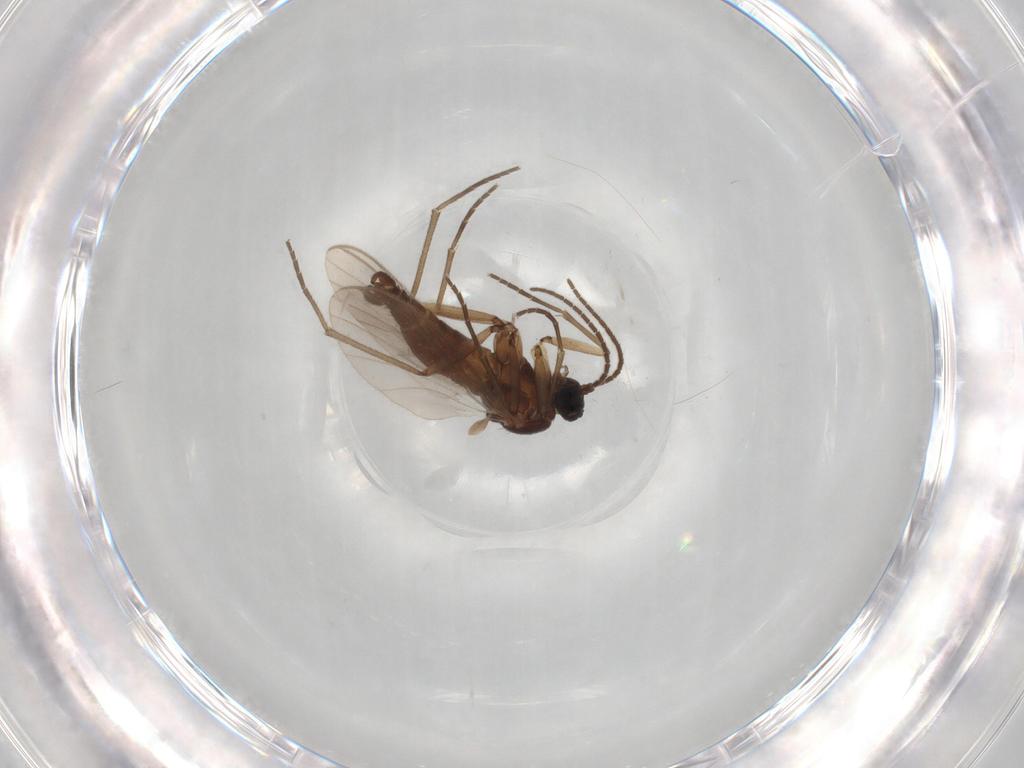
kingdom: Animalia
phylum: Arthropoda
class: Insecta
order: Diptera
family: Sciaridae
